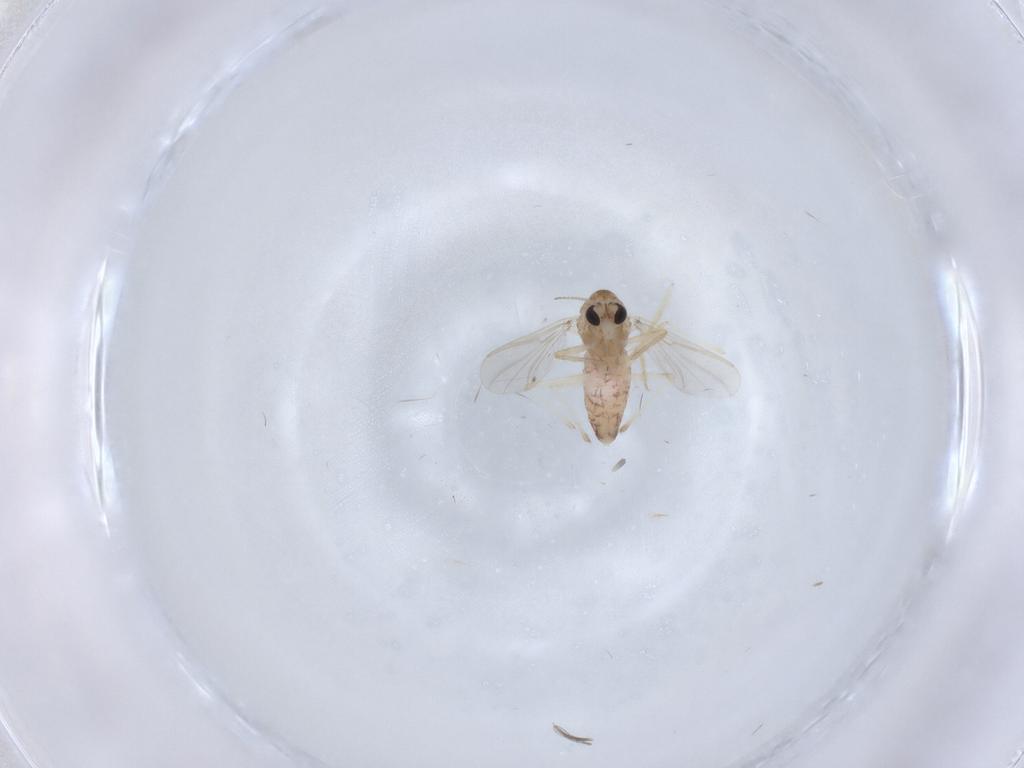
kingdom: Animalia
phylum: Arthropoda
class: Insecta
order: Diptera
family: Chironomidae
